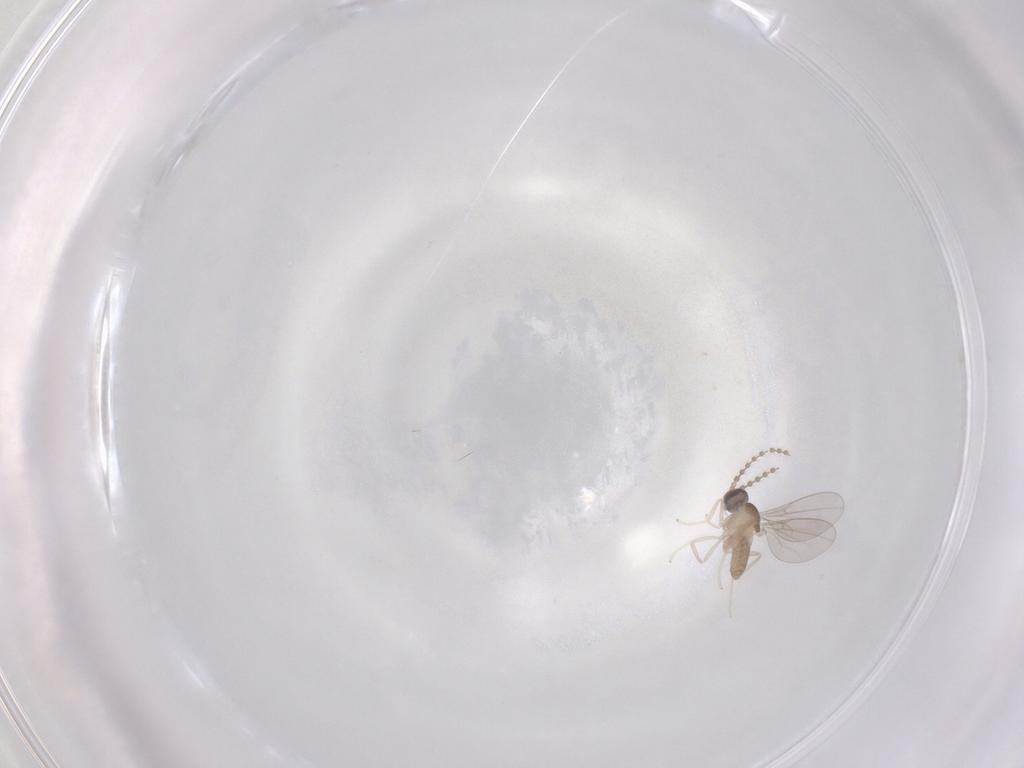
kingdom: Animalia
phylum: Arthropoda
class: Insecta
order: Diptera
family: Cecidomyiidae
